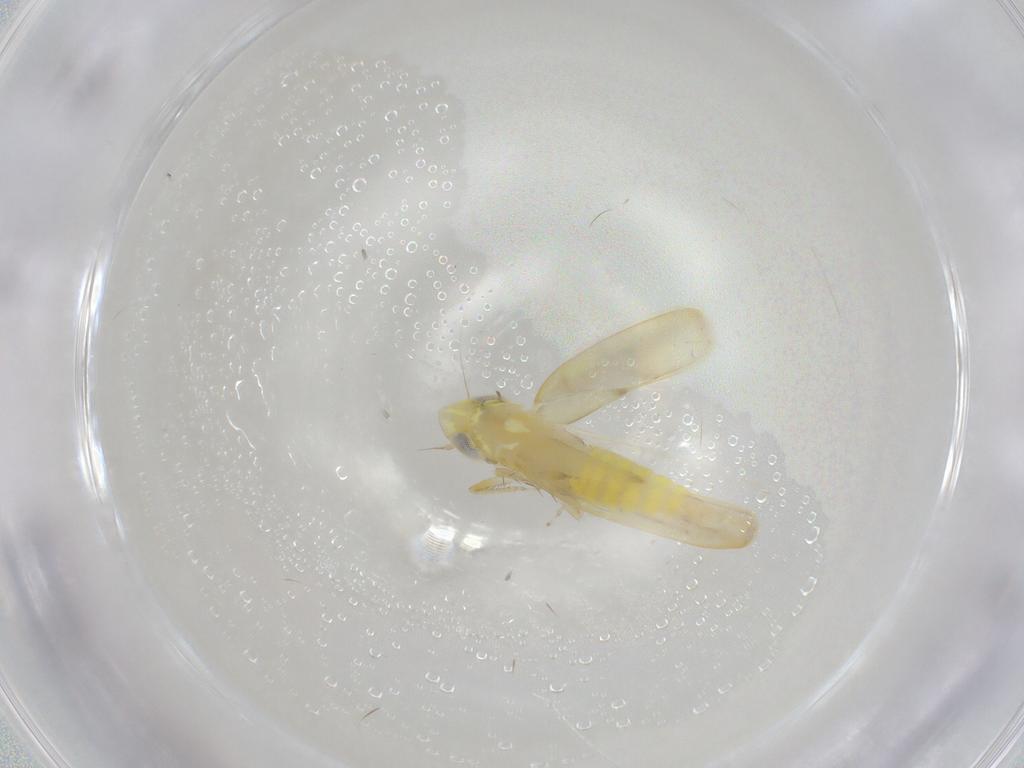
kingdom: Animalia
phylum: Arthropoda
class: Insecta
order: Hemiptera
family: Cicadellidae
